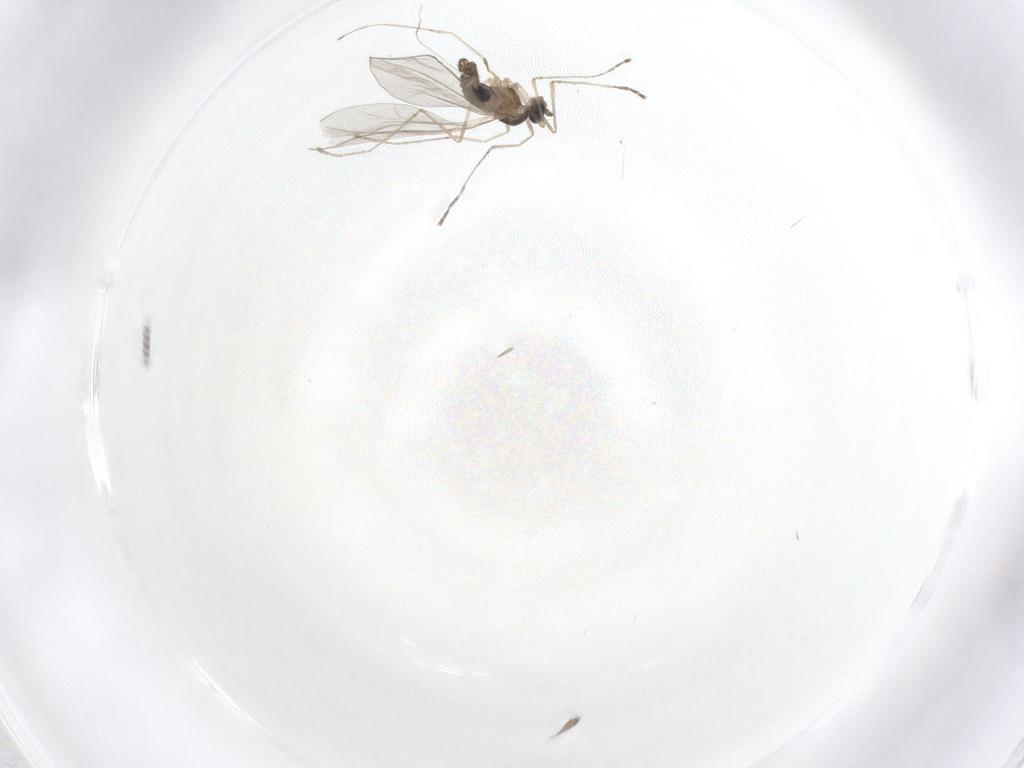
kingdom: Animalia
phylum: Arthropoda
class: Insecta
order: Diptera
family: Cecidomyiidae
